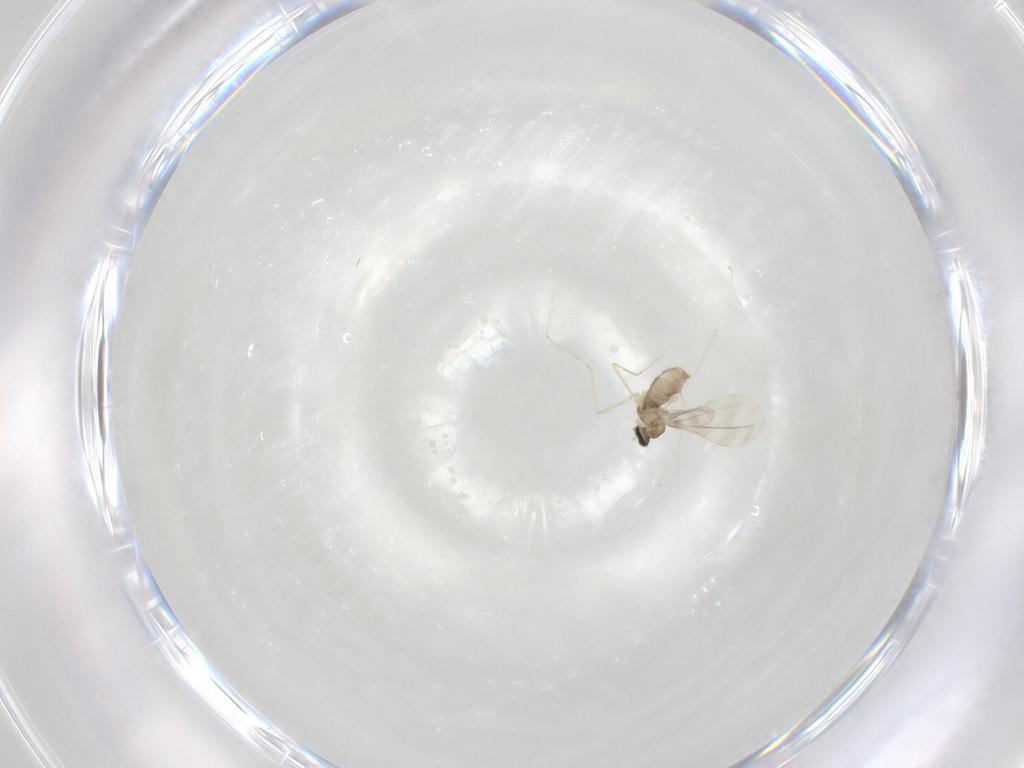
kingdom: Animalia
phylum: Arthropoda
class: Insecta
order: Diptera
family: Cecidomyiidae
